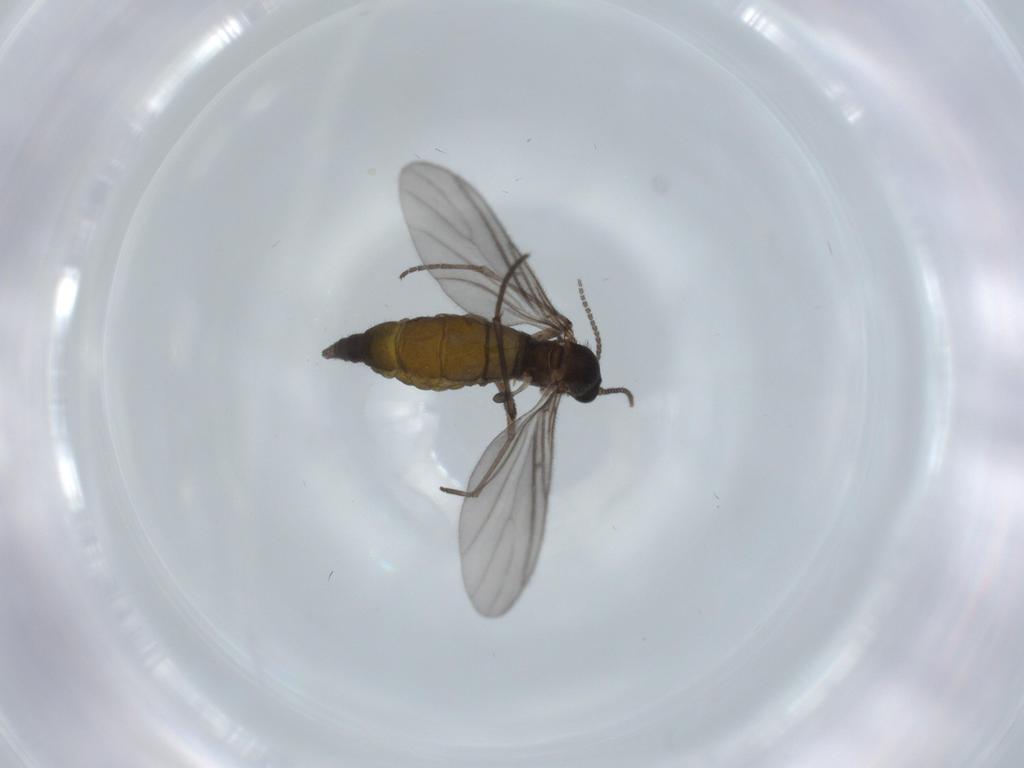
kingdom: Animalia
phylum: Arthropoda
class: Insecta
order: Diptera
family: Sciaridae
